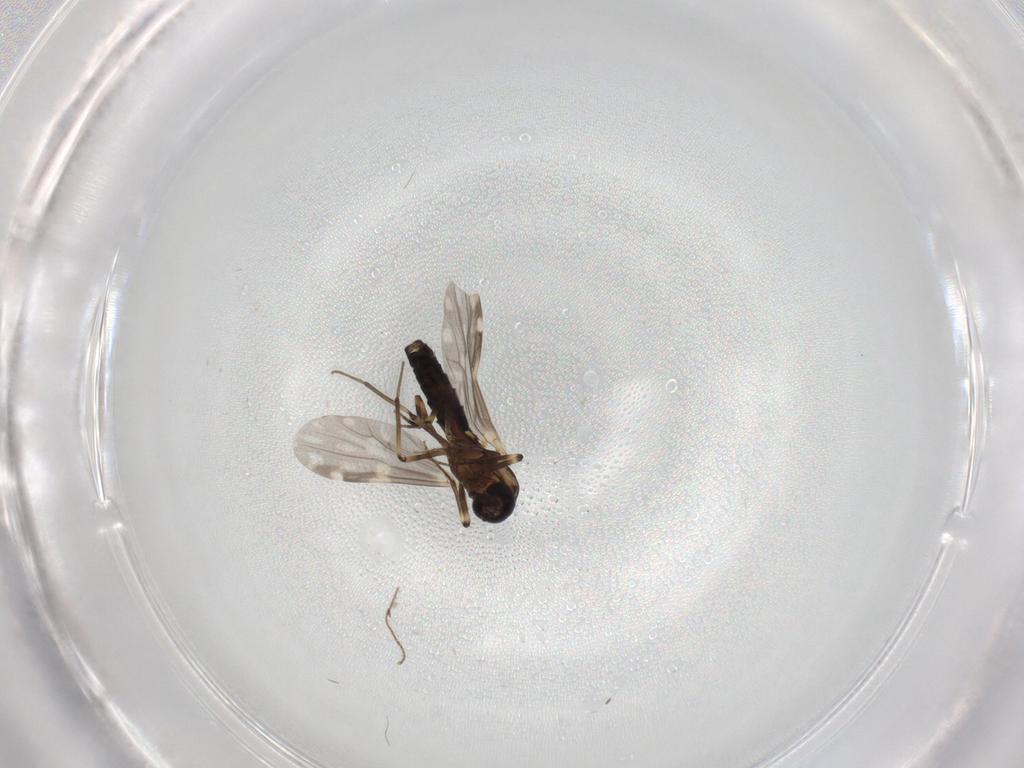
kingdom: Animalia
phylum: Arthropoda
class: Insecta
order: Diptera
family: Ceratopogonidae
